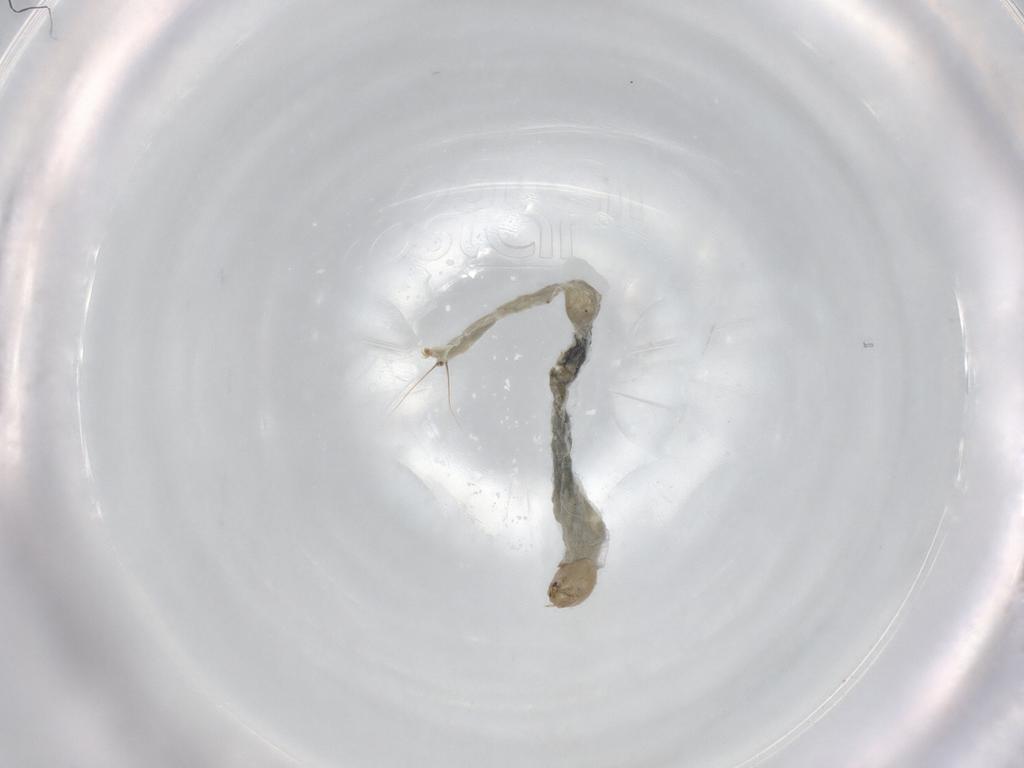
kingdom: Animalia
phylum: Arthropoda
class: Insecta
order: Diptera
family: Chironomidae
